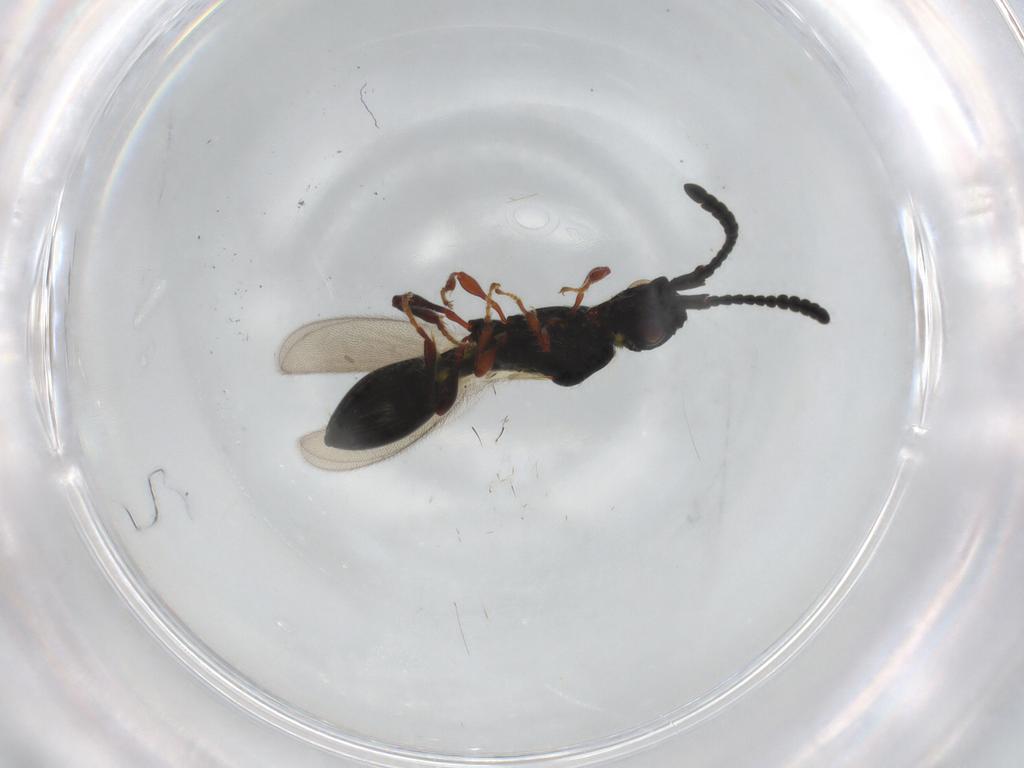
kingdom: Animalia
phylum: Arthropoda
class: Insecta
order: Hymenoptera
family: Diapriidae
